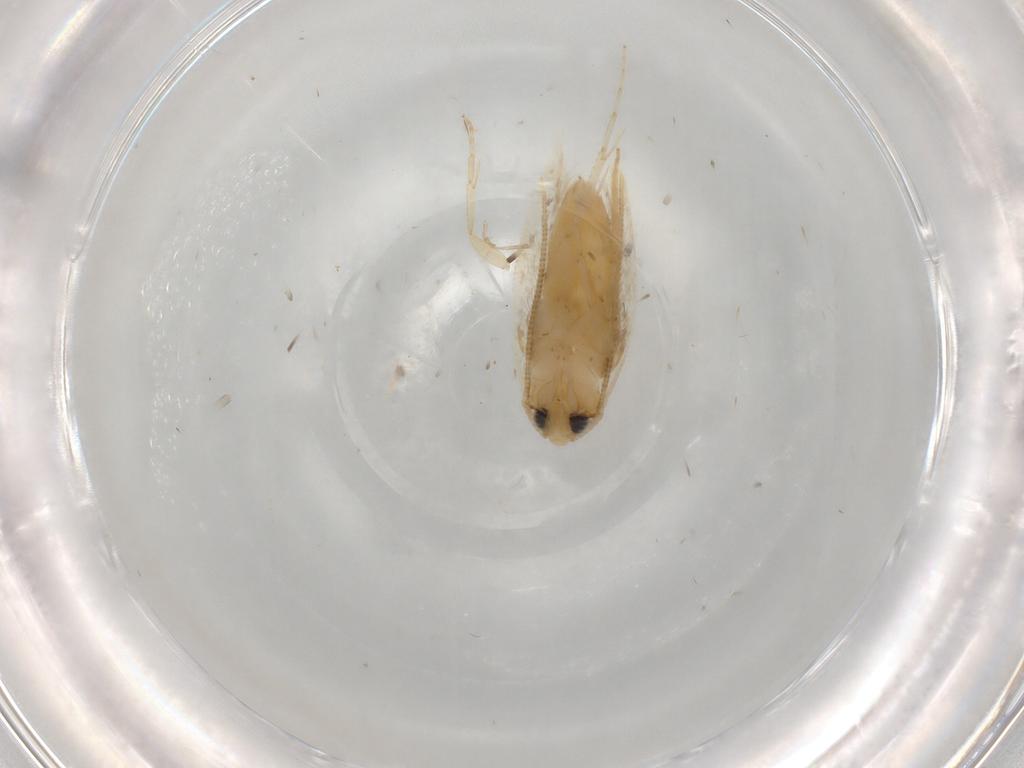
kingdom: Animalia
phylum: Arthropoda
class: Insecta
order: Lepidoptera
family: Opostegidae
